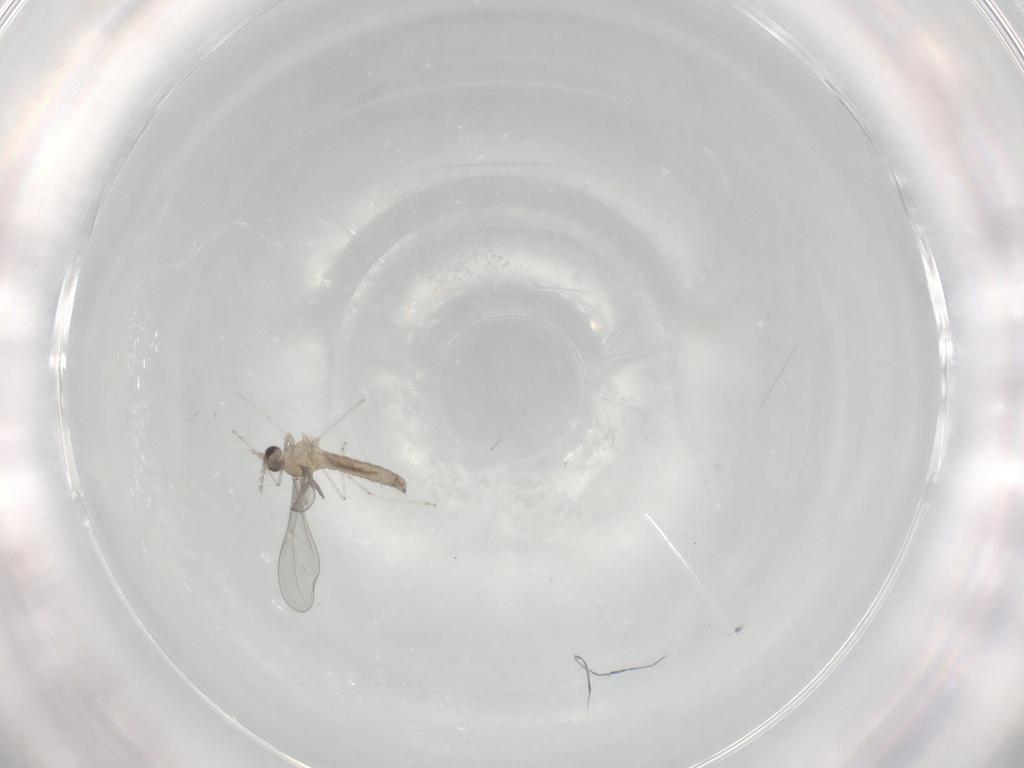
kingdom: Animalia
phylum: Arthropoda
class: Insecta
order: Diptera
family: Cecidomyiidae
